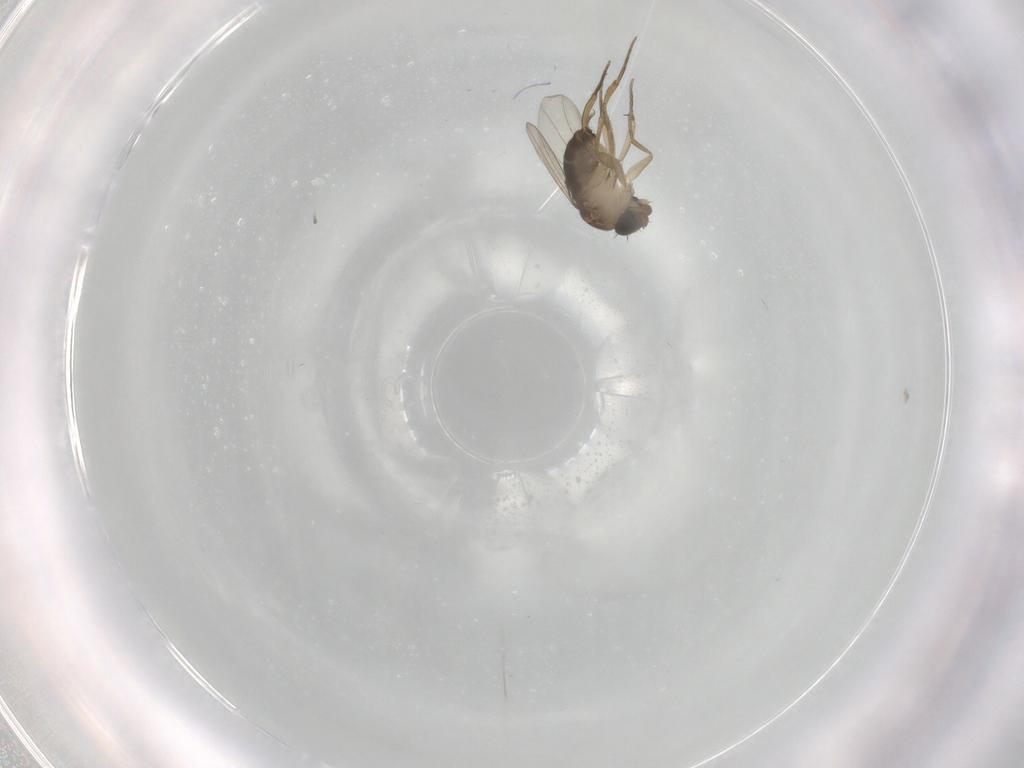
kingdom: Animalia
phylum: Arthropoda
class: Insecta
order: Diptera
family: Phoridae
